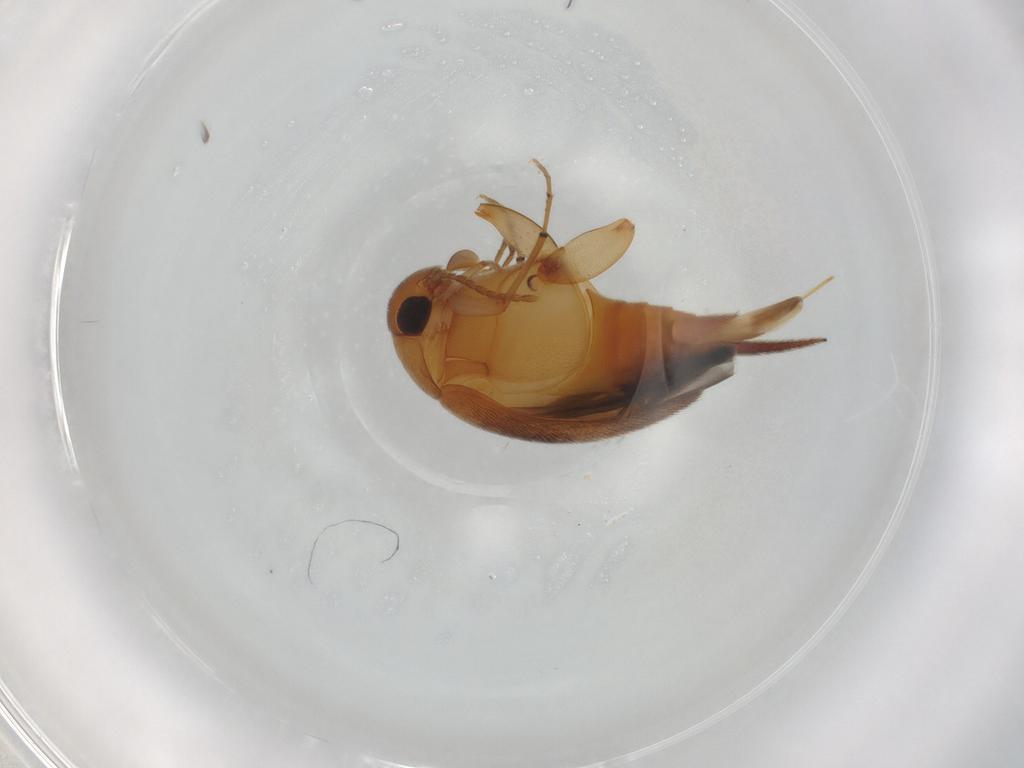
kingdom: Animalia
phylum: Arthropoda
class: Insecta
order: Coleoptera
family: Mordellidae
